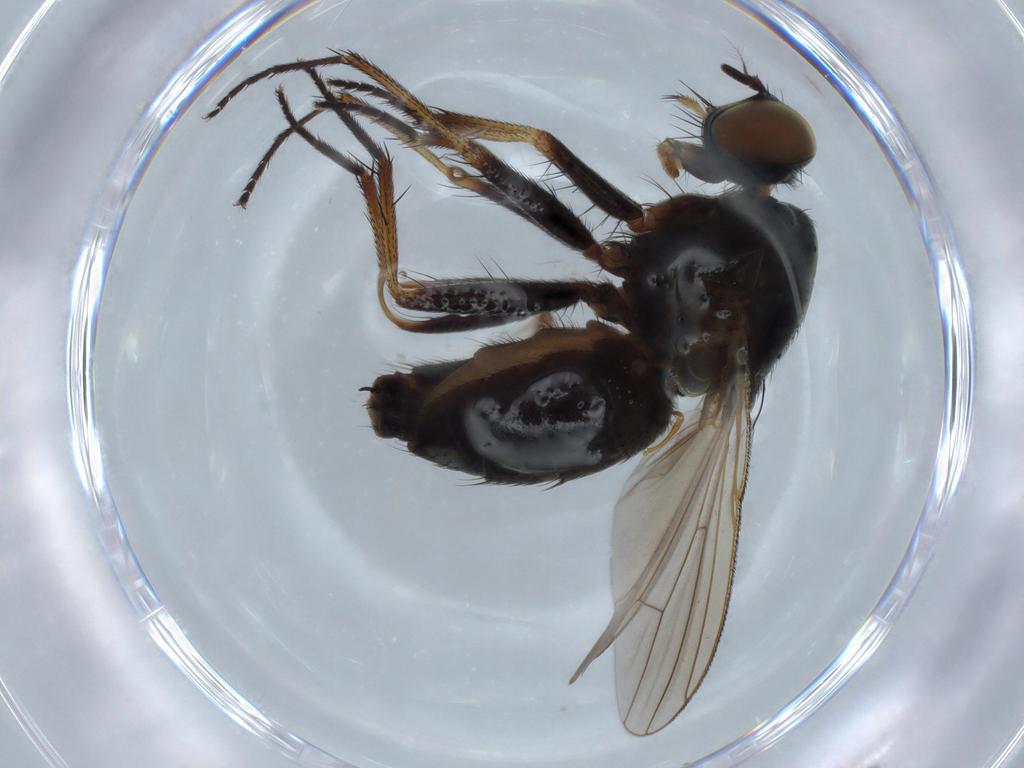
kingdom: Animalia
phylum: Arthropoda
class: Insecta
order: Diptera
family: Muscidae
